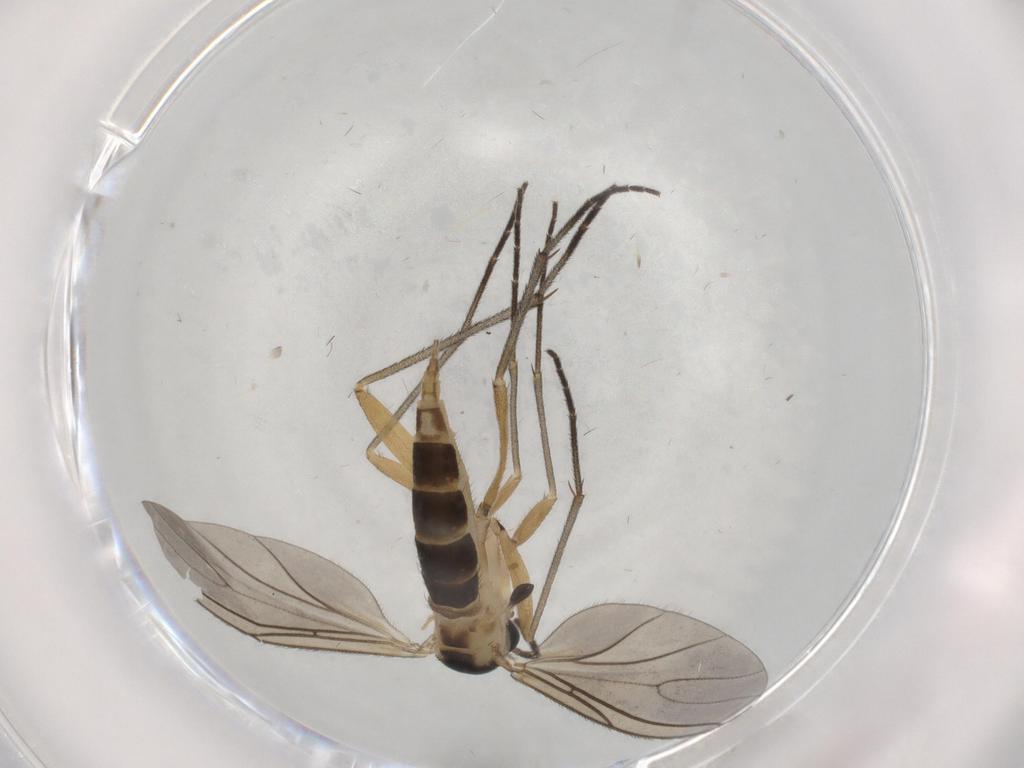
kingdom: Animalia
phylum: Arthropoda
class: Insecta
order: Diptera
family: Sciaridae
